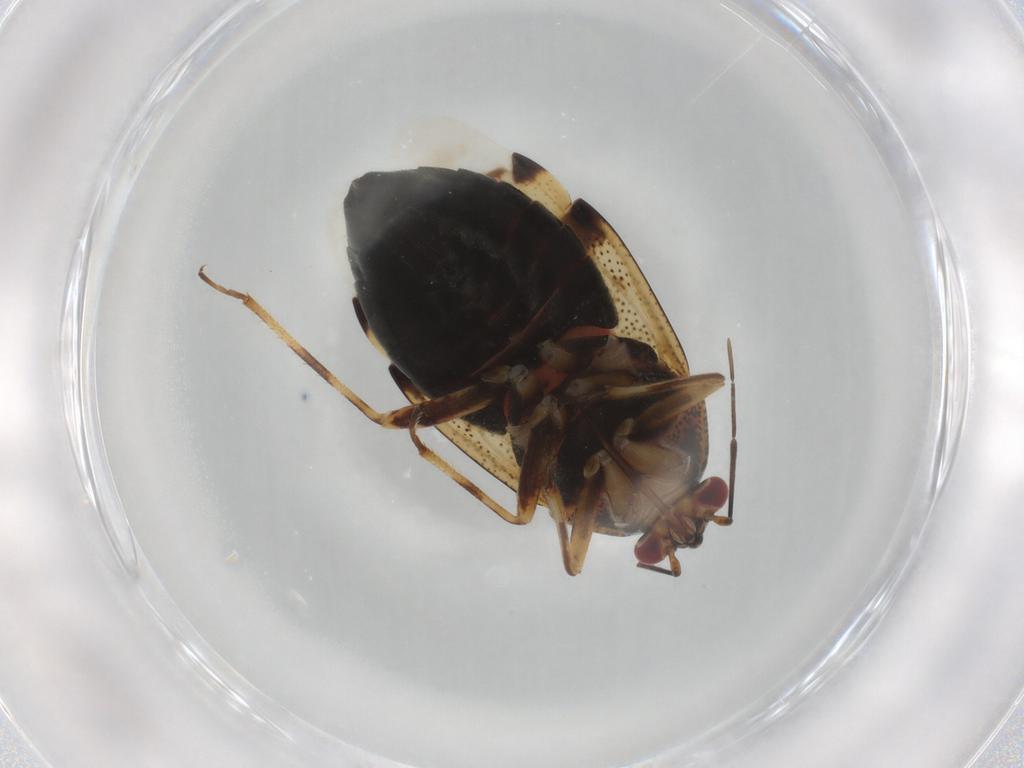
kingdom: Animalia
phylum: Arthropoda
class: Insecta
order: Hemiptera
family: Miridae
